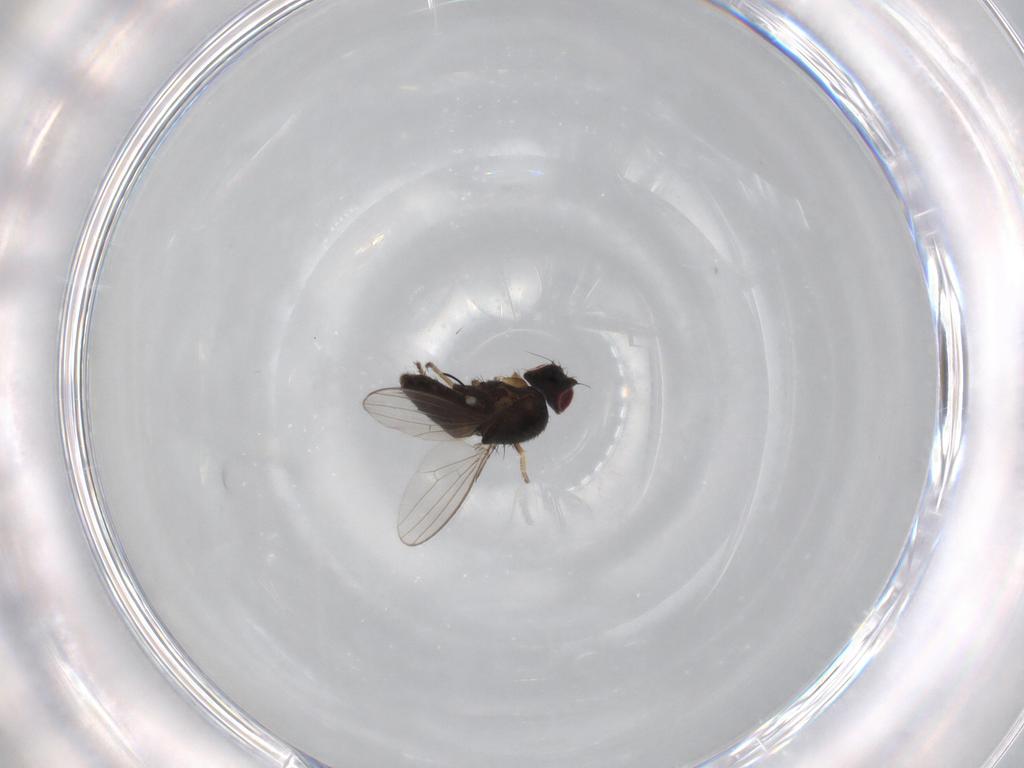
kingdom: Animalia
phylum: Arthropoda
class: Insecta
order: Diptera
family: Milichiidae
